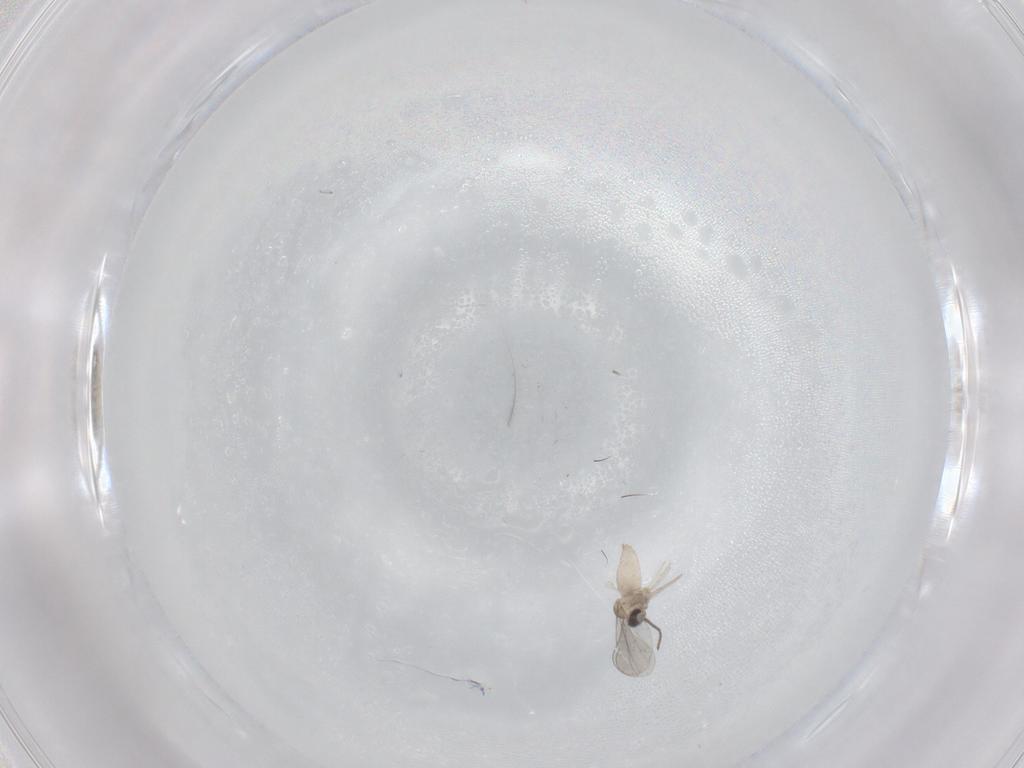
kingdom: Animalia
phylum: Arthropoda
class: Insecta
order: Diptera
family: Cecidomyiidae
